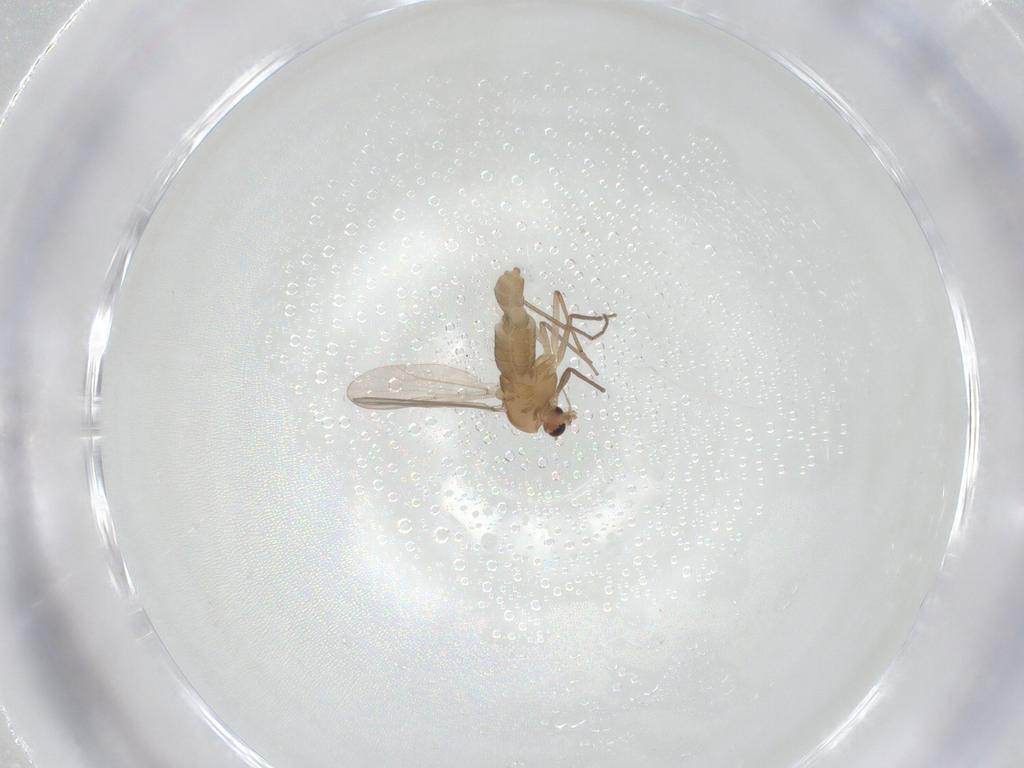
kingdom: Animalia
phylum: Arthropoda
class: Insecta
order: Diptera
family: Chironomidae
